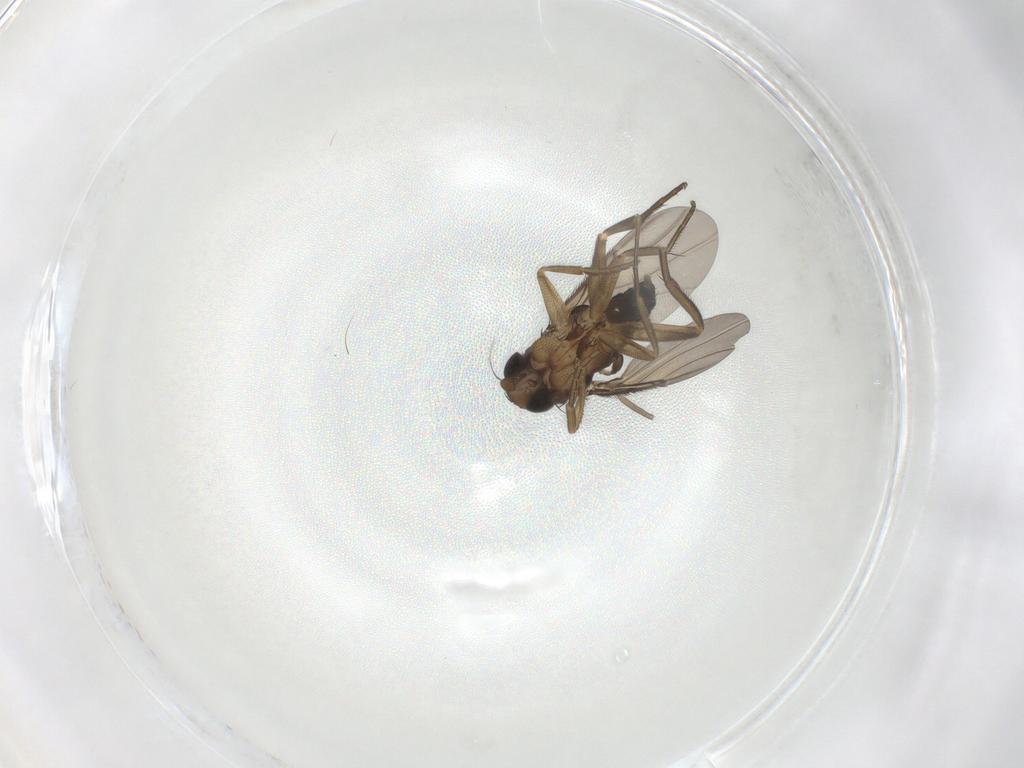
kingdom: Animalia
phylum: Arthropoda
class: Insecta
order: Diptera
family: Phoridae
